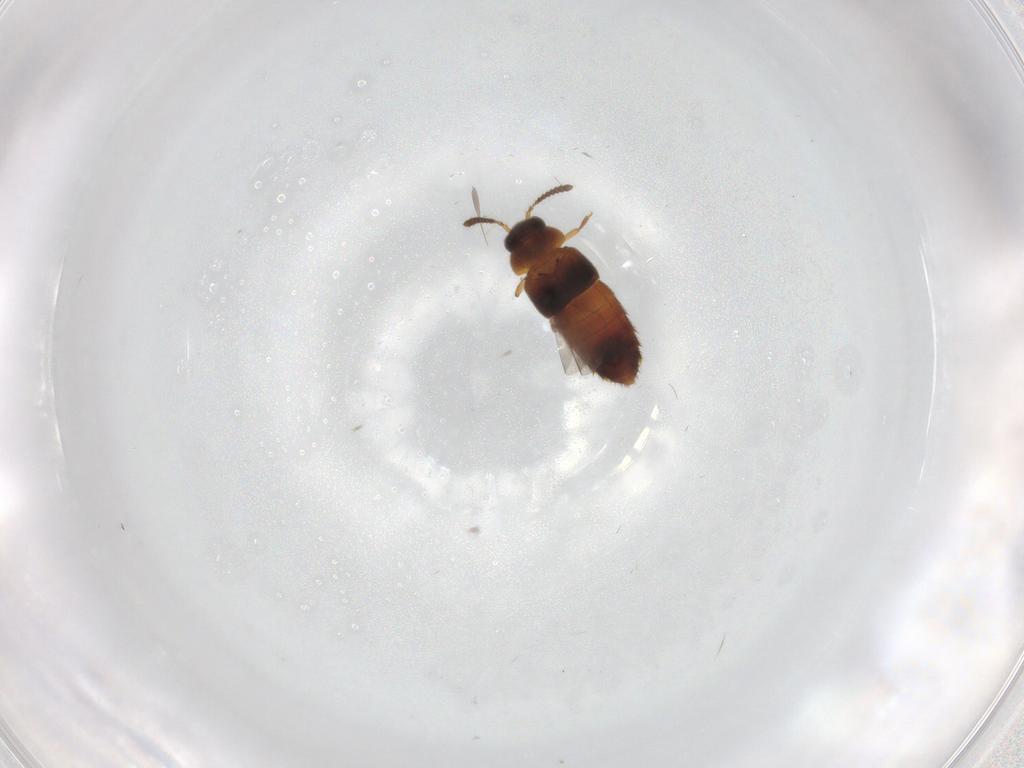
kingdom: Animalia
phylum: Arthropoda
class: Insecta
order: Coleoptera
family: Staphylinidae
